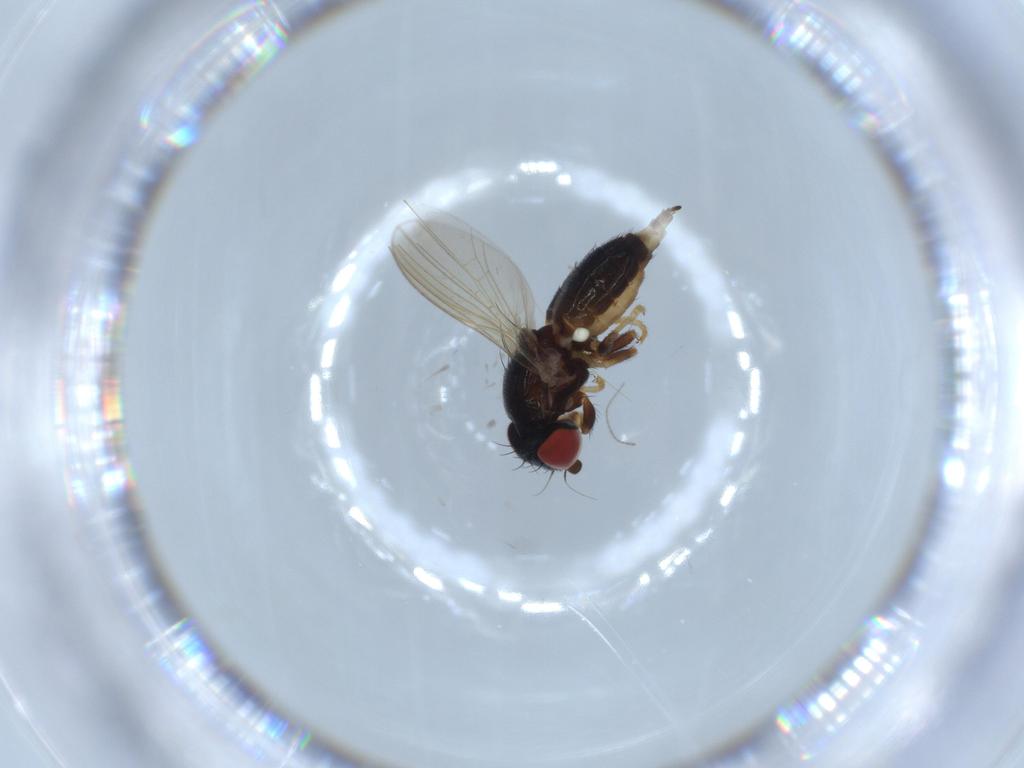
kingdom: Animalia
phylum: Arthropoda
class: Insecta
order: Diptera
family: Chamaemyiidae
